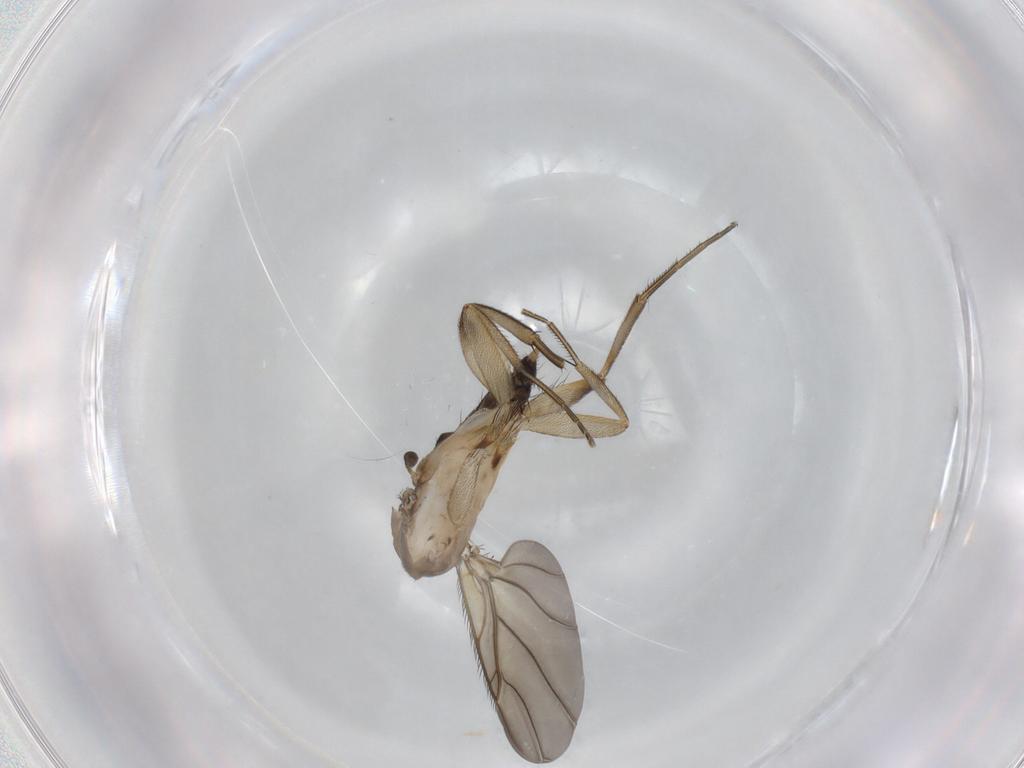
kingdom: Animalia
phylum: Arthropoda
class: Insecta
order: Diptera
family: Phoridae
